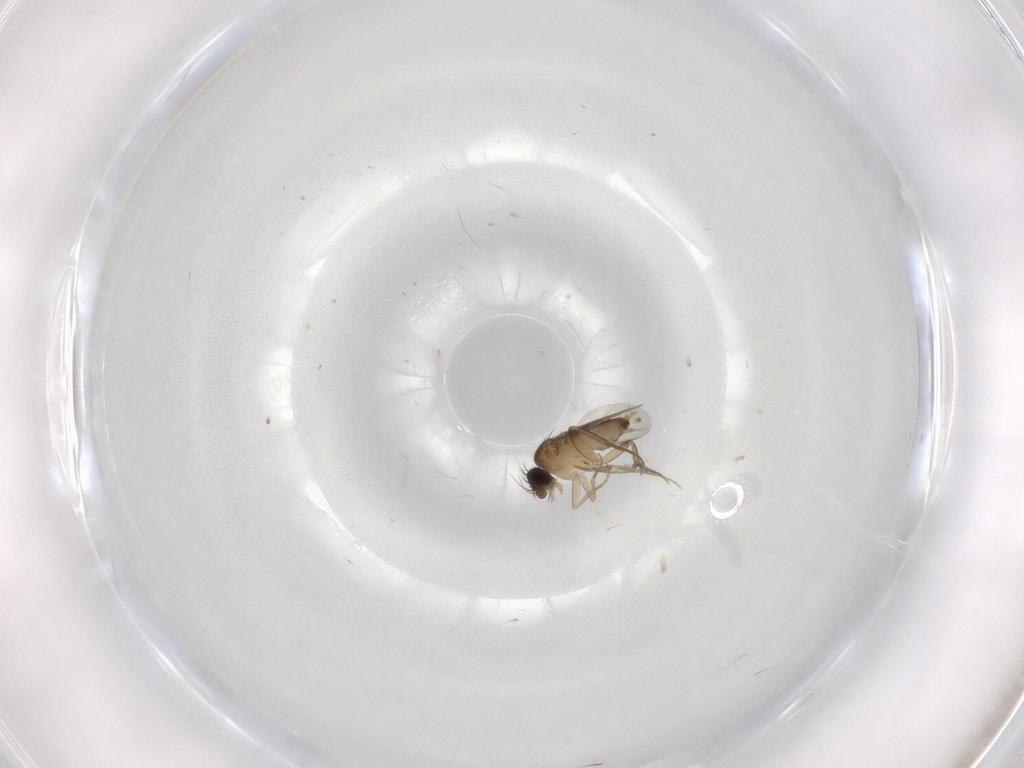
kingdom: Animalia
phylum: Arthropoda
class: Insecta
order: Diptera
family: Phoridae
